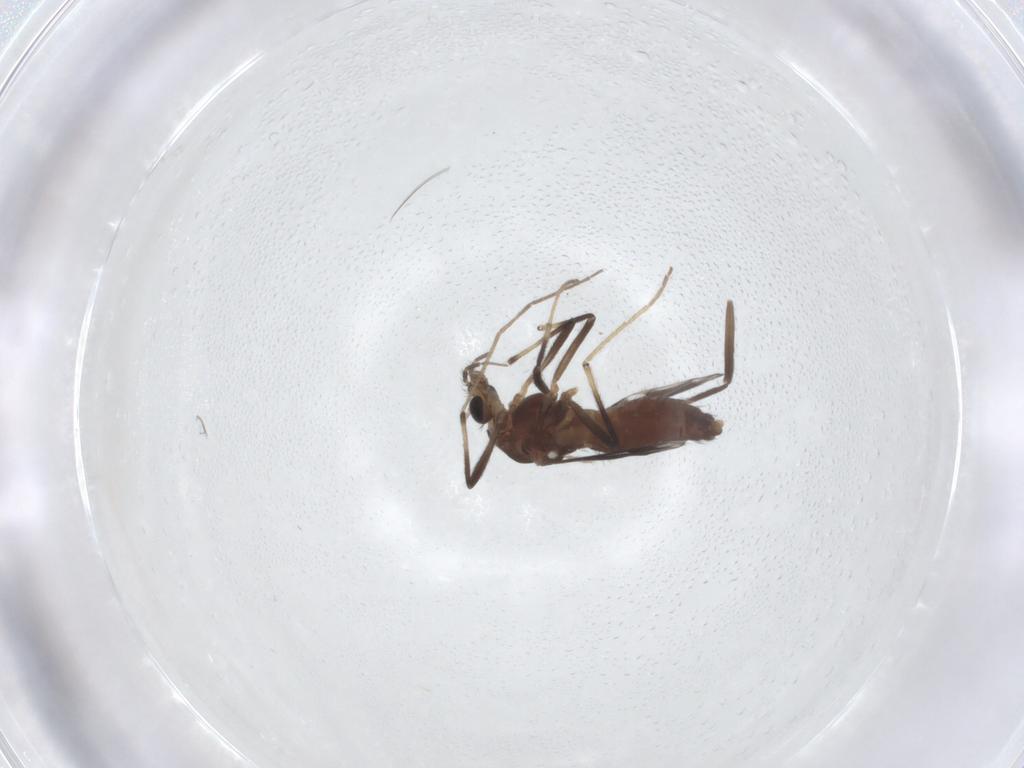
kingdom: Animalia
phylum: Arthropoda
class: Insecta
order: Diptera
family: Chironomidae
